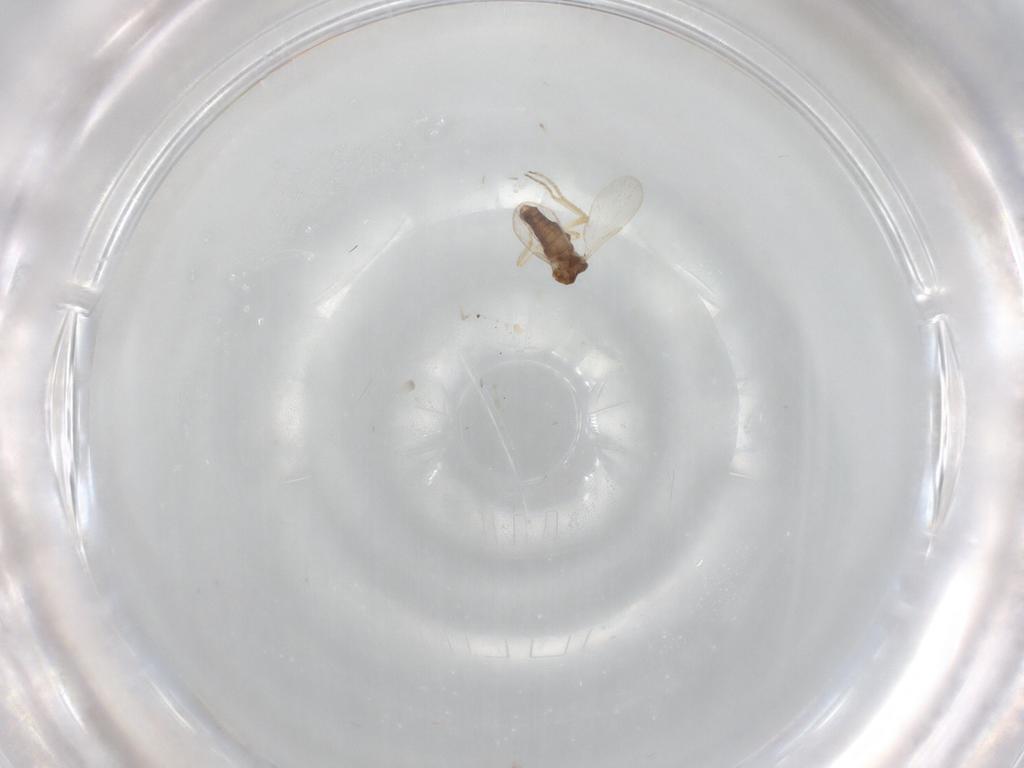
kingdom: Animalia
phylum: Arthropoda
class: Insecta
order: Diptera
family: Ceratopogonidae
